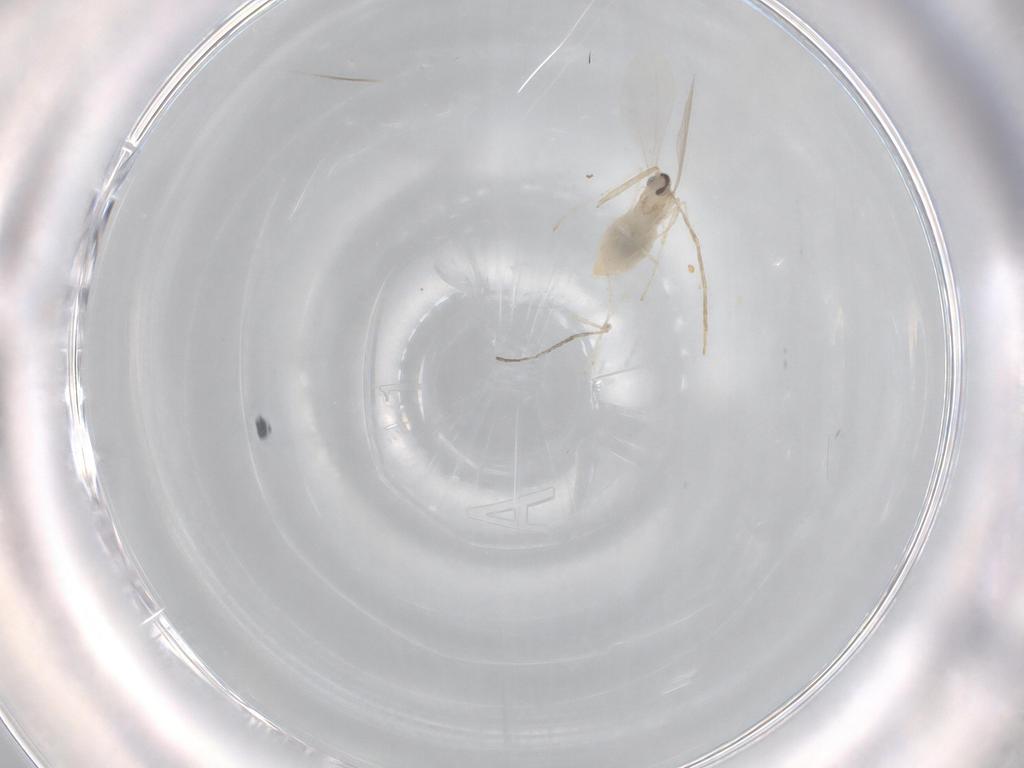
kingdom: Animalia
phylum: Arthropoda
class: Insecta
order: Diptera
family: Cecidomyiidae
